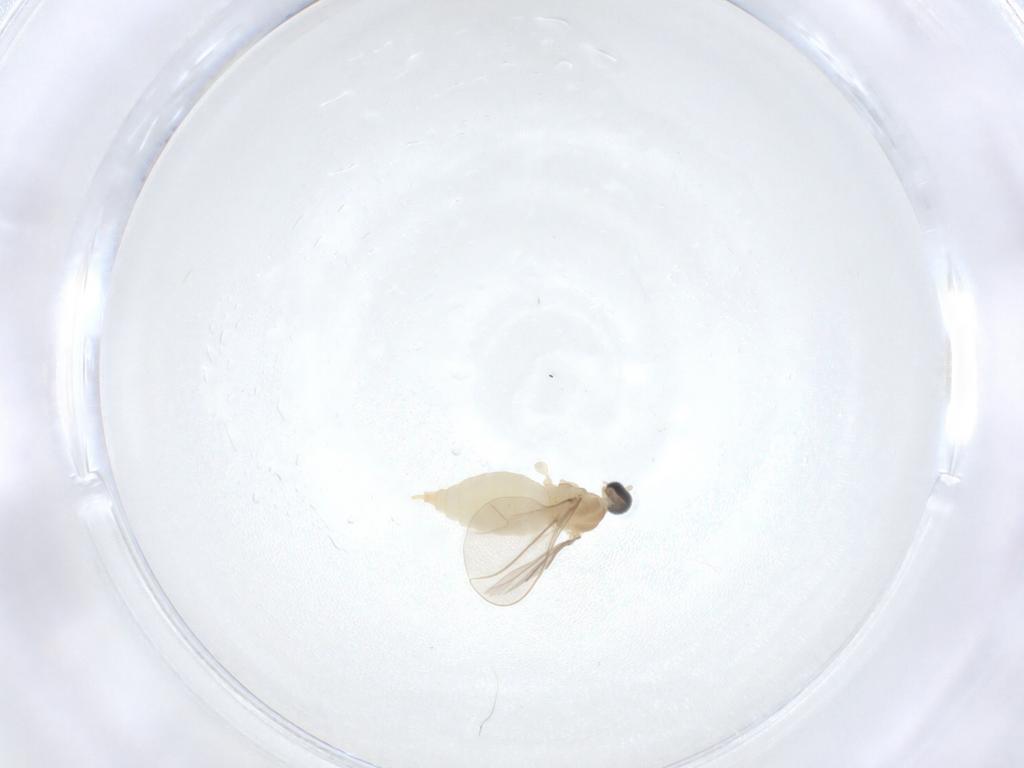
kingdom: Animalia
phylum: Arthropoda
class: Insecta
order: Diptera
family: Cecidomyiidae
